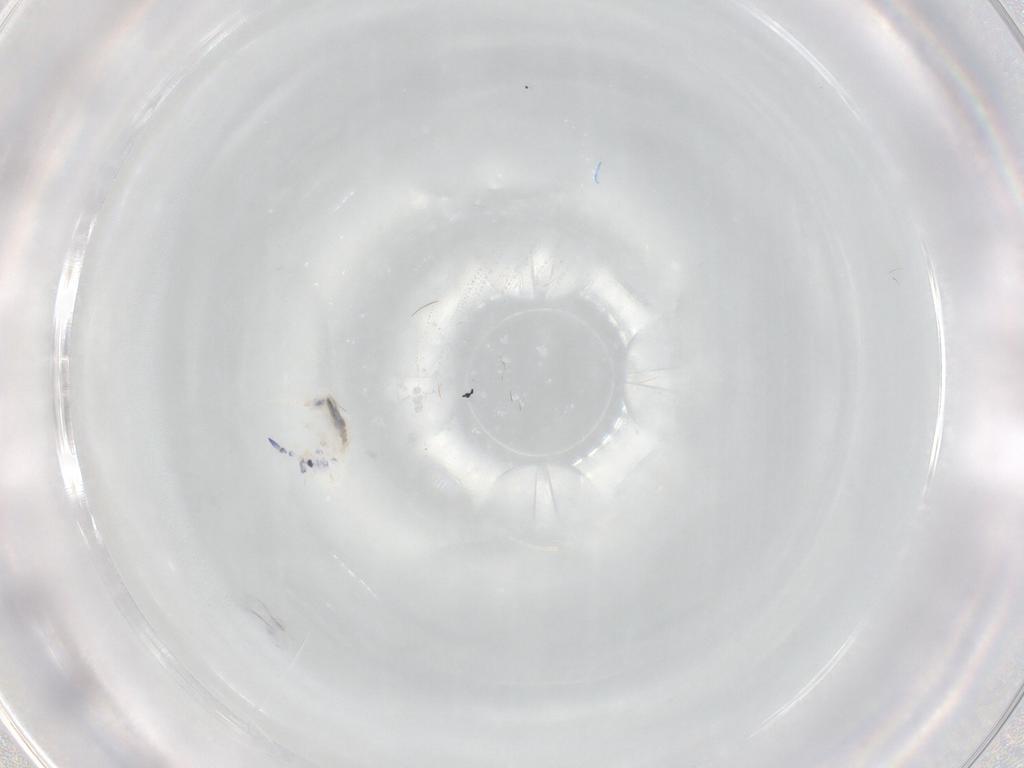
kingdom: Animalia
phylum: Arthropoda
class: Collembola
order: Entomobryomorpha
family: Entomobryidae
